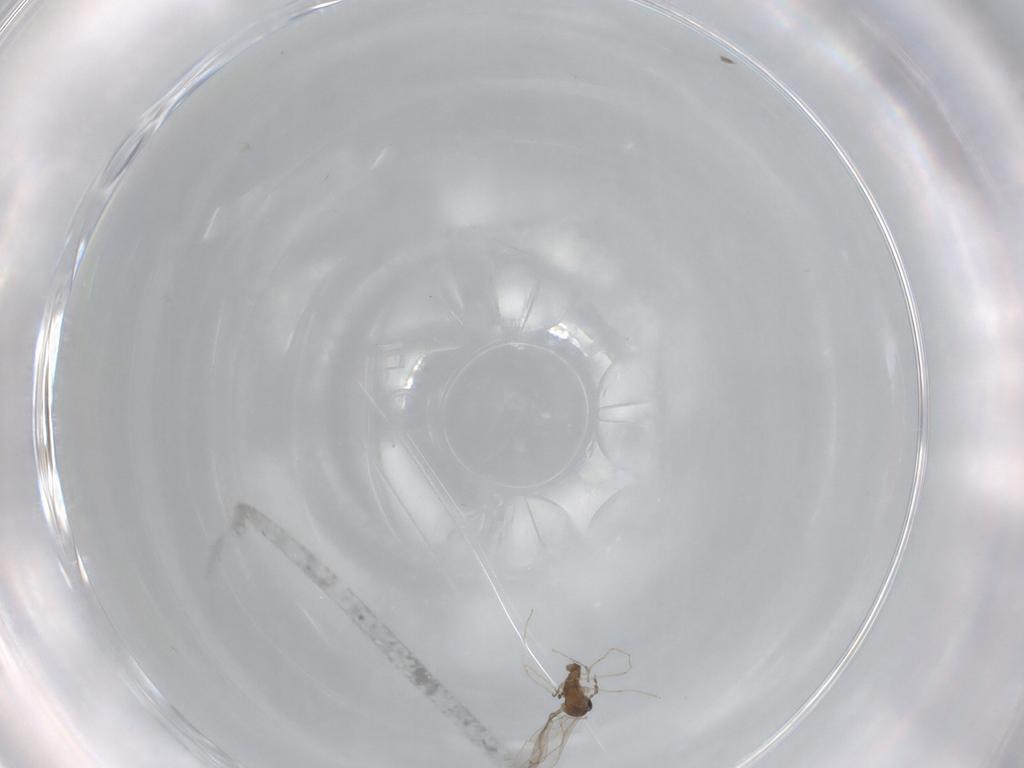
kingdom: Animalia
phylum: Arthropoda
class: Insecta
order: Diptera
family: Cecidomyiidae
